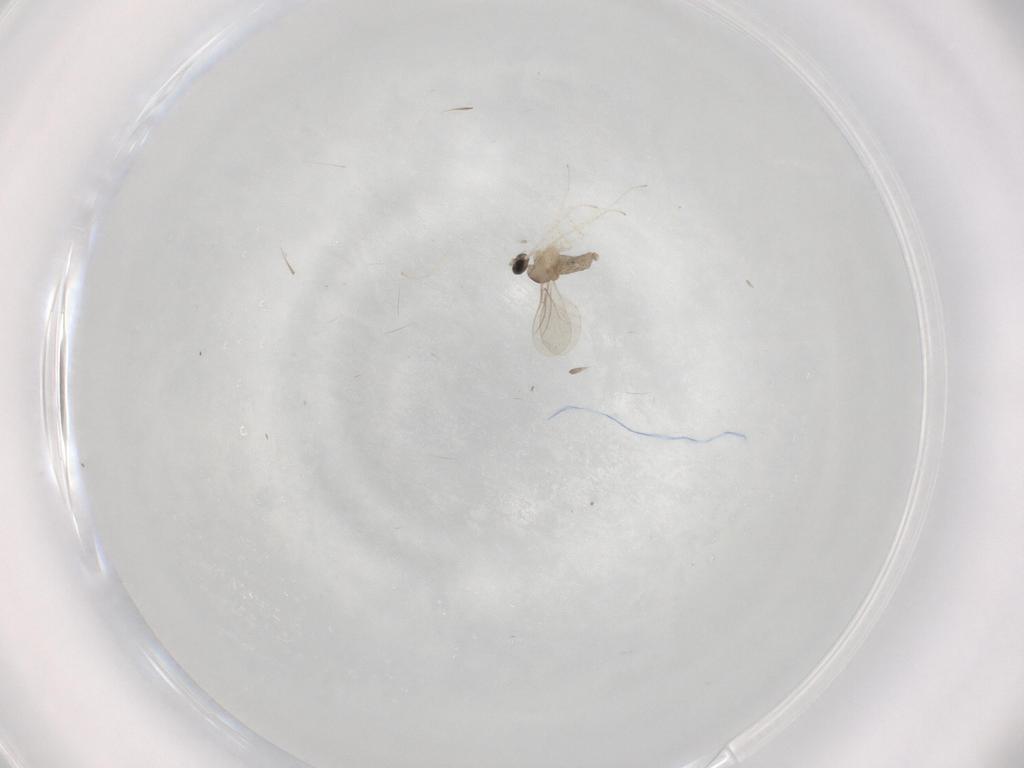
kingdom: Animalia
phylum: Arthropoda
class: Insecta
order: Diptera
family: Cecidomyiidae
